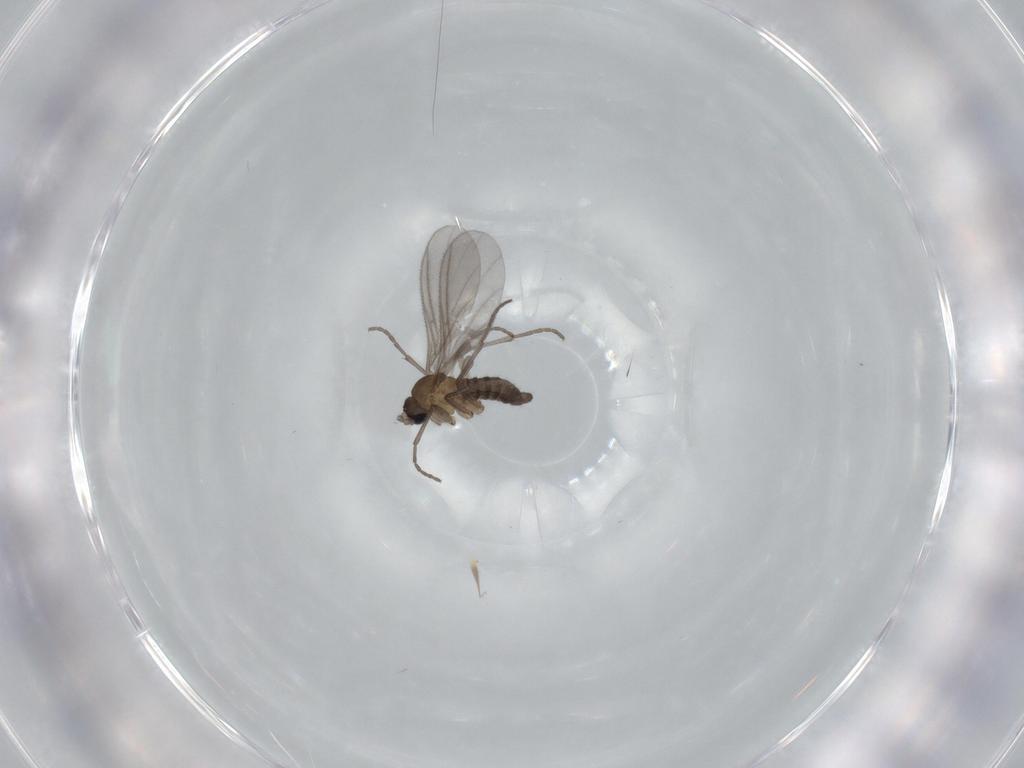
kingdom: Animalia
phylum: Arthropoda
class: Insecta
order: Diptera
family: Sciaridae
